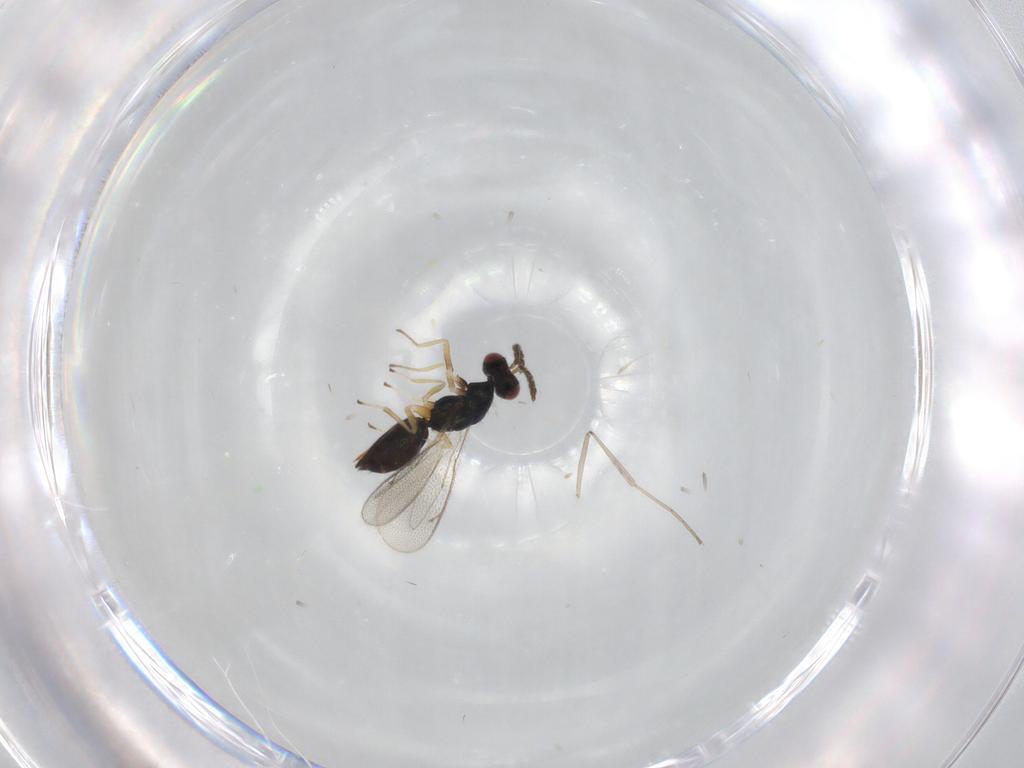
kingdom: Animalia
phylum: Arthropoda
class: Insecta
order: Hymenoptera
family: Eulophidae
